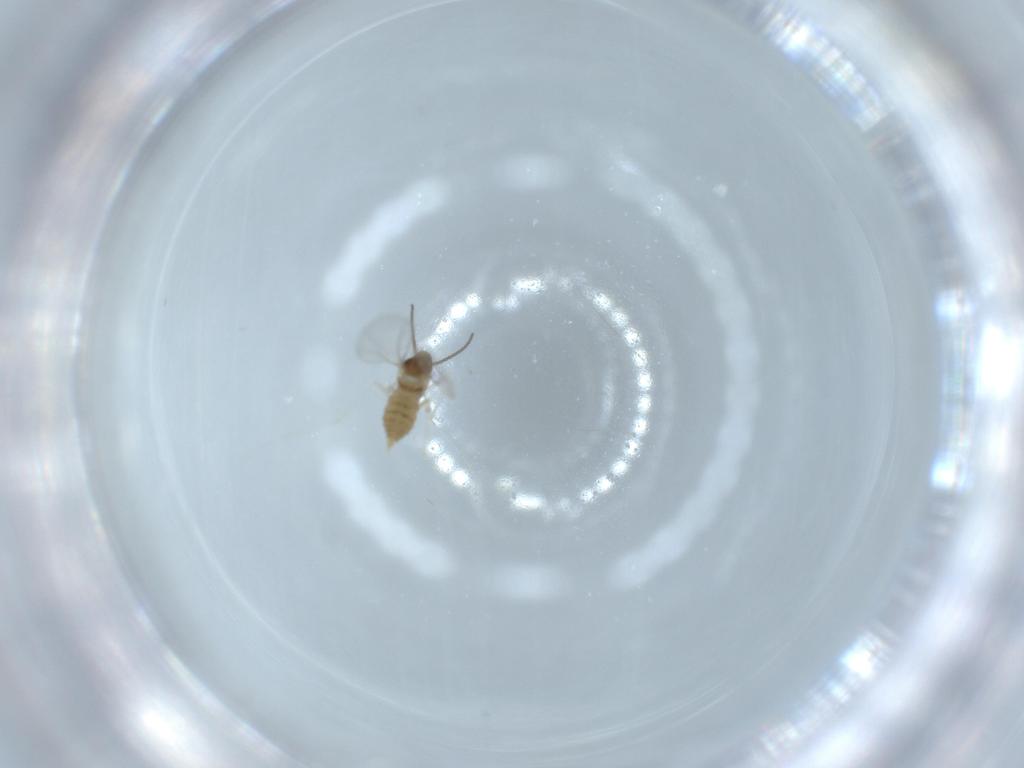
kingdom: Animalia
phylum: Arthropoda
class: Insecta
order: Diptera
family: Cecidomyiidae
